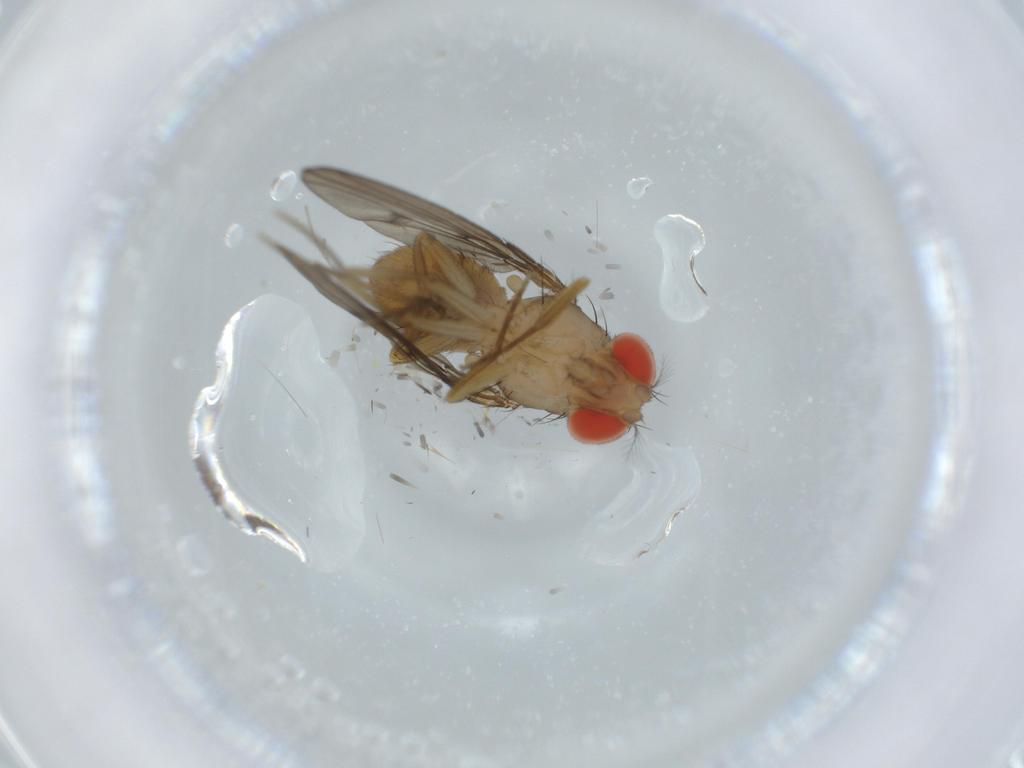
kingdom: Animalia
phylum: Arthropoda
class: Insecta
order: Diptera
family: Drosophilidae
